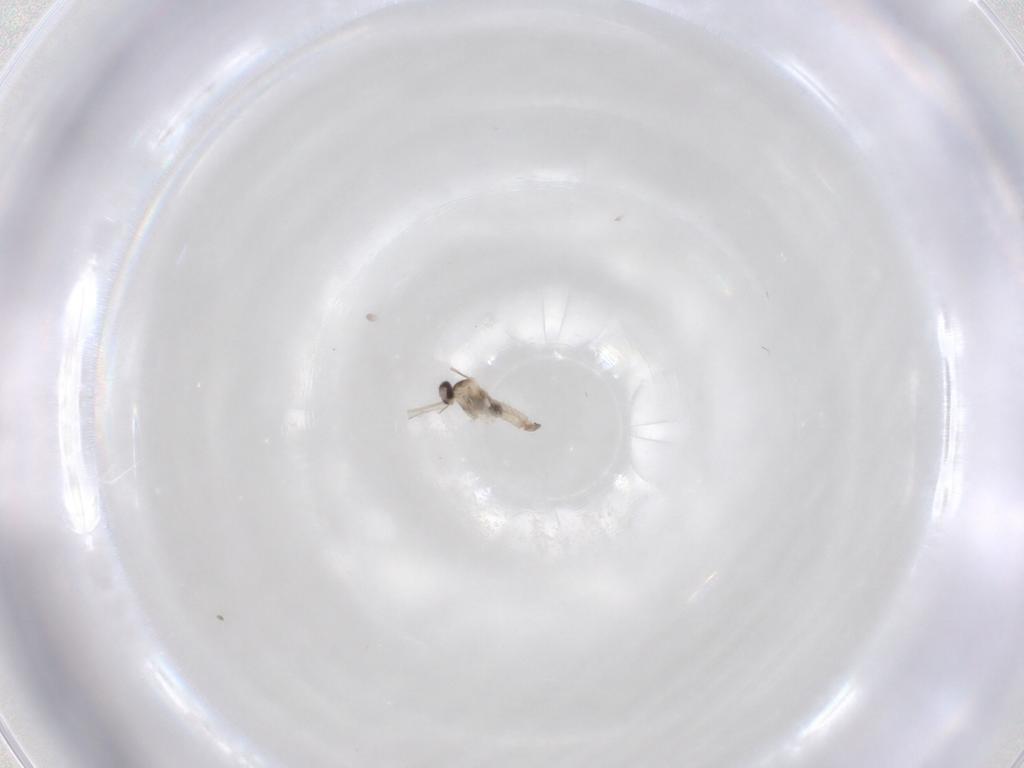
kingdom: Animalia
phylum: Arthropoda
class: Insecta
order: Diptera
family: Cecidomyiidae
